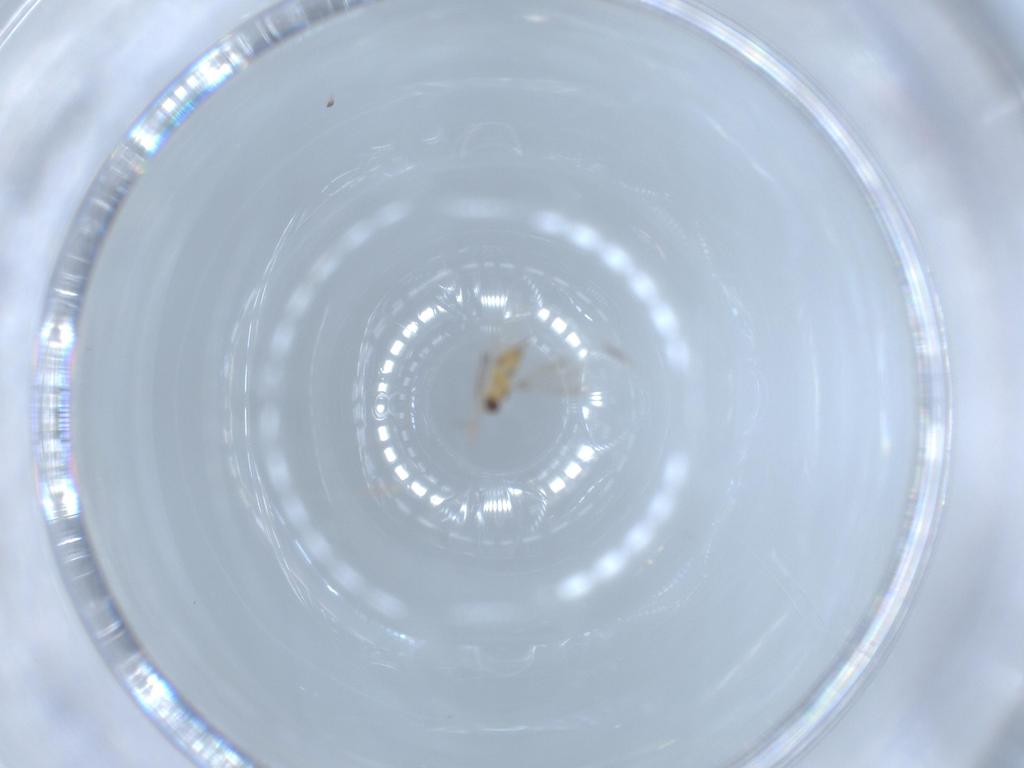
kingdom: Animalia
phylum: Arthropoda
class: Insecta
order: Hymenoptera
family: Mymaridae
